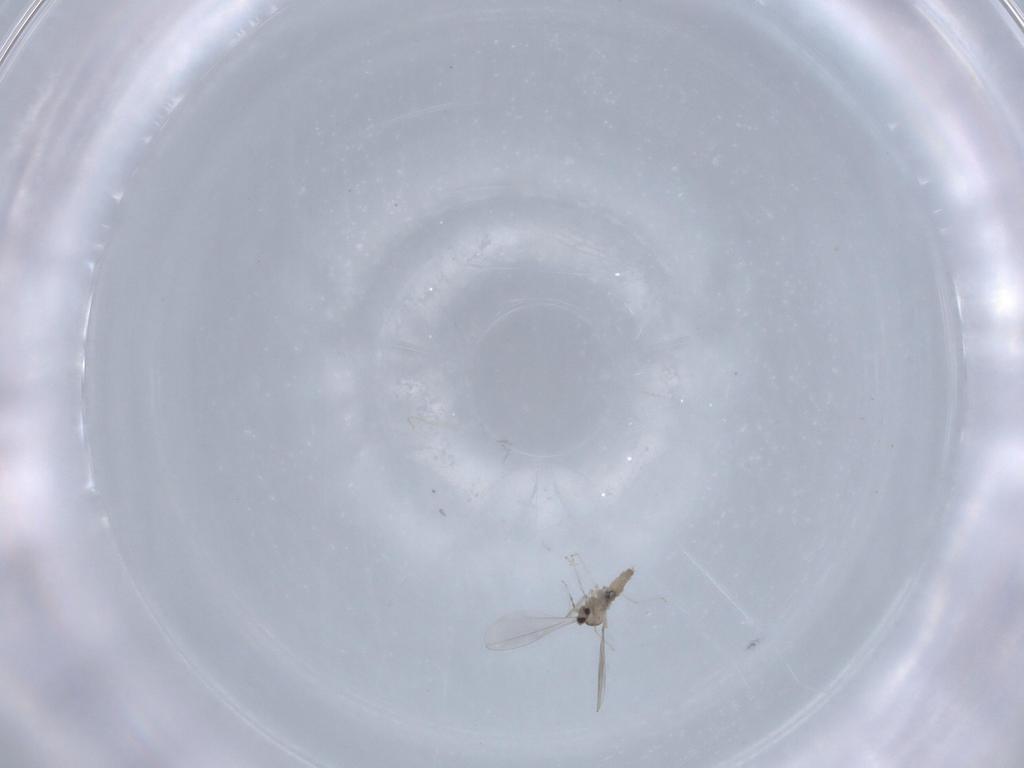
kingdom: Animalia
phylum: Arthropoda
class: Insecta
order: Diptera
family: Cecidomyiidae
